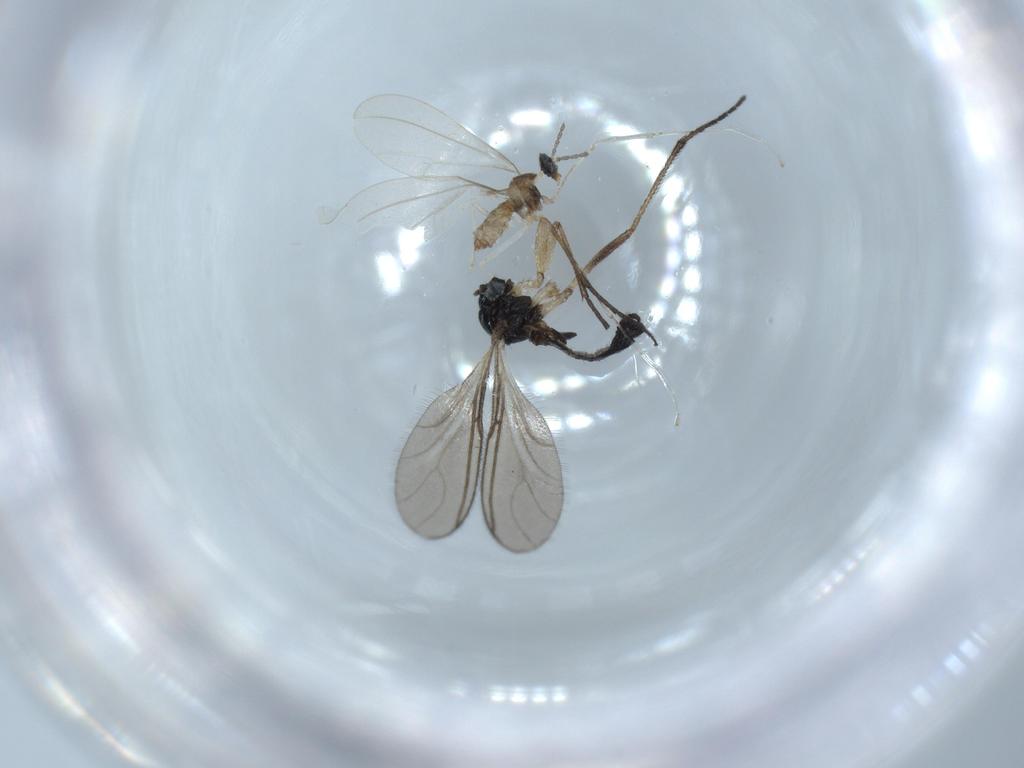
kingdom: Animalia
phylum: Arthropoda
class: Insecta
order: Diptera
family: Sciaridae
